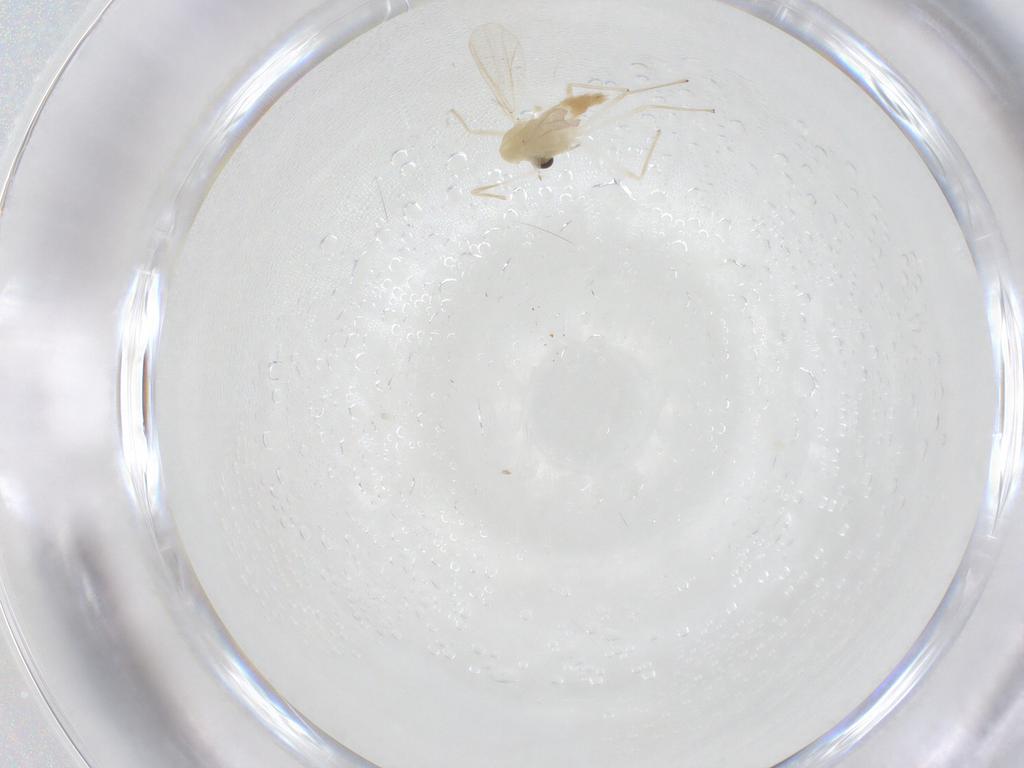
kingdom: Animalia
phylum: Arthropoda
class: Insecta
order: Diptera
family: Chironomidae
